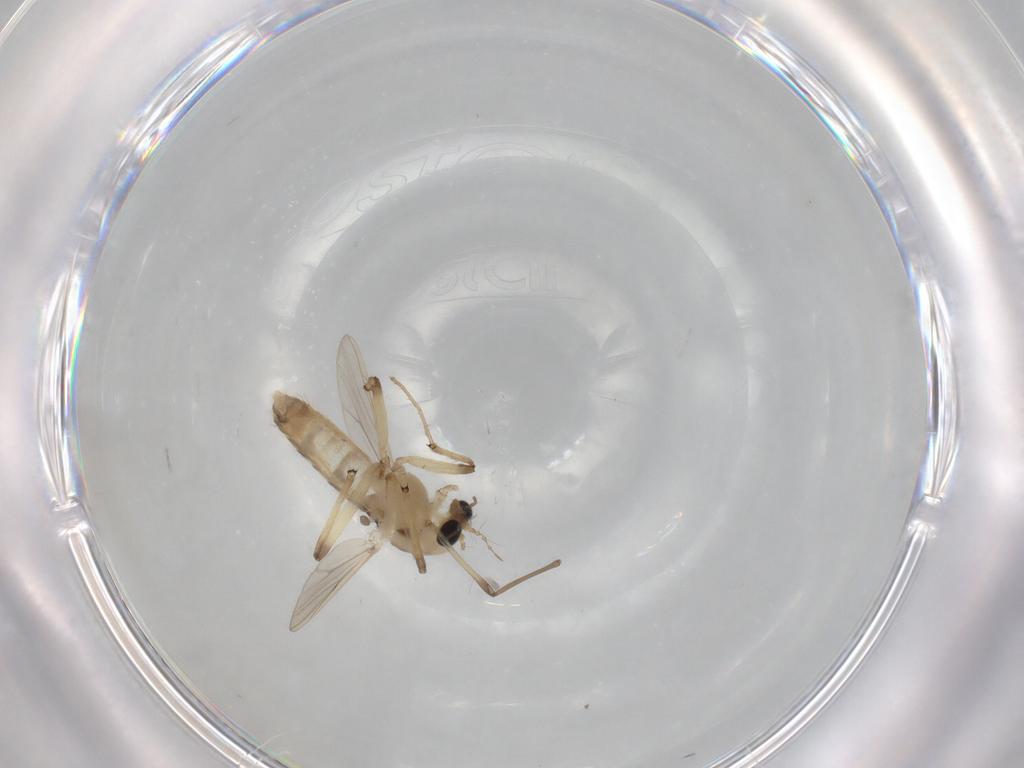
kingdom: Animalia
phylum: Arthropoda
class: Insecta
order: Diptera
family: Chironomidae
